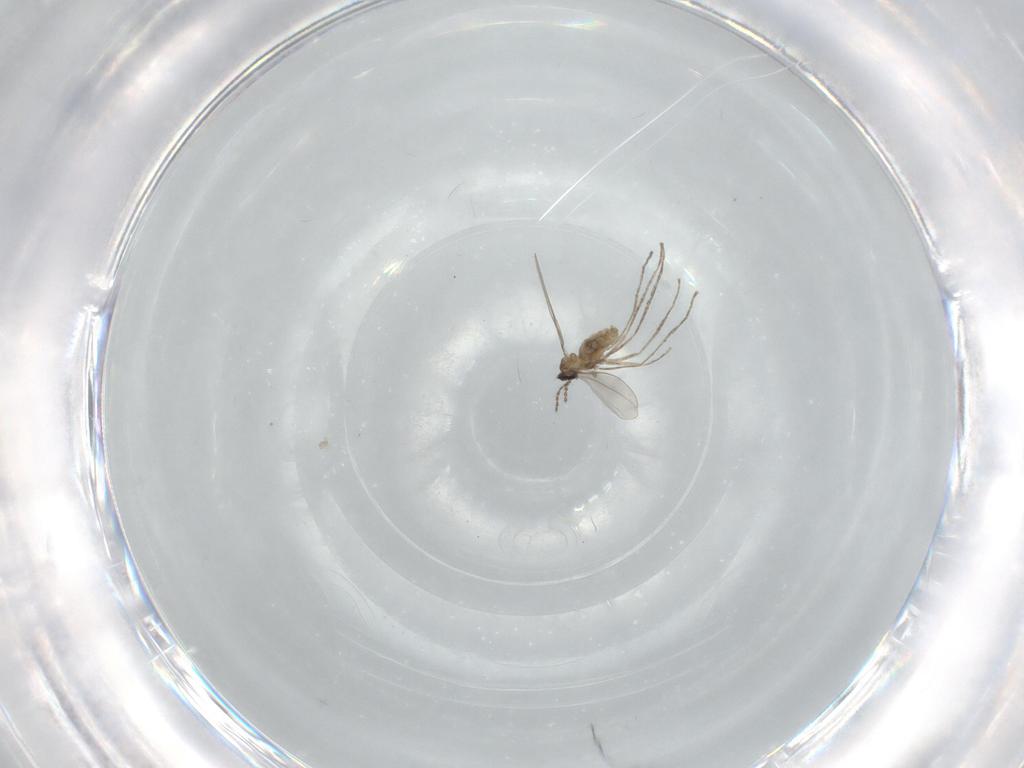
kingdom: Animalia
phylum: Arthropoda
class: Insecta
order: Diptera
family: Cecidomyiidae
